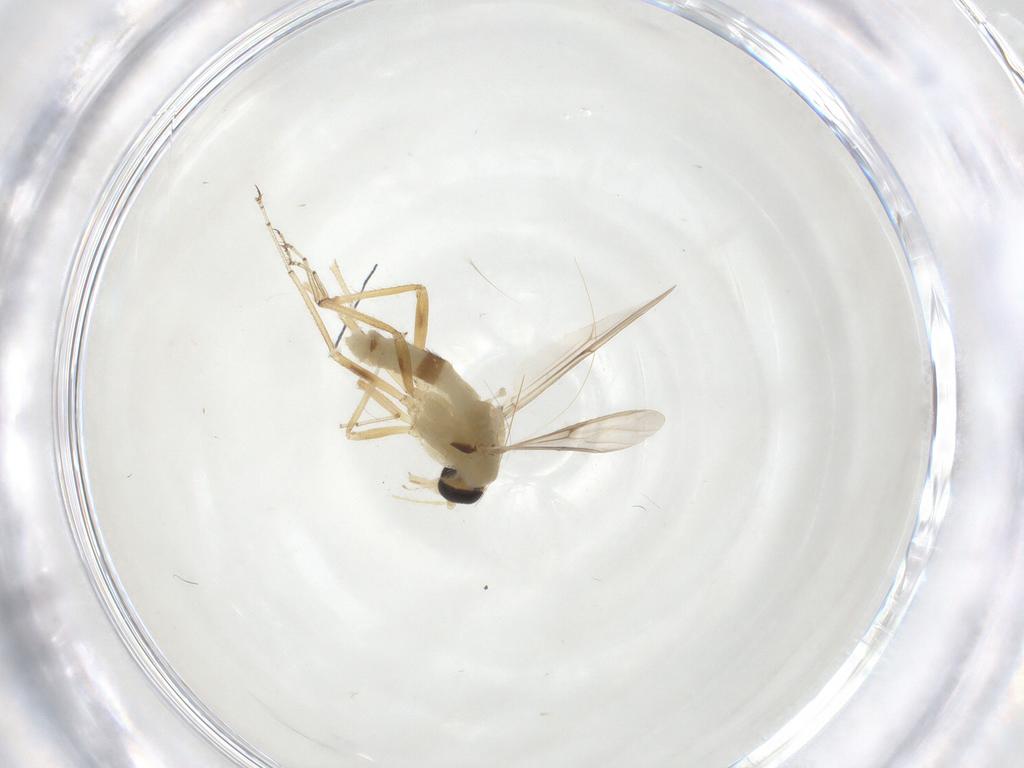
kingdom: Animalia
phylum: Arthropoda
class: Insecta
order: Diptera
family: Ceratopogonidae
